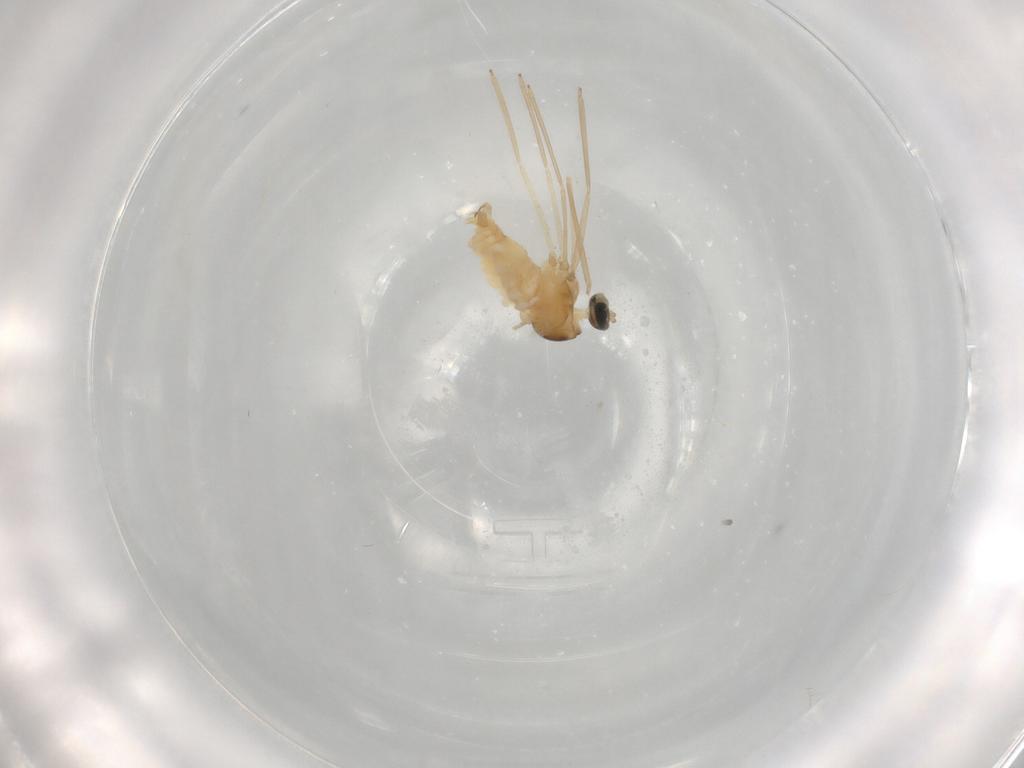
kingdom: Animalia
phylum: Arthropoda
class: Insecta
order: Diptera
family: Cecidomyiidae
